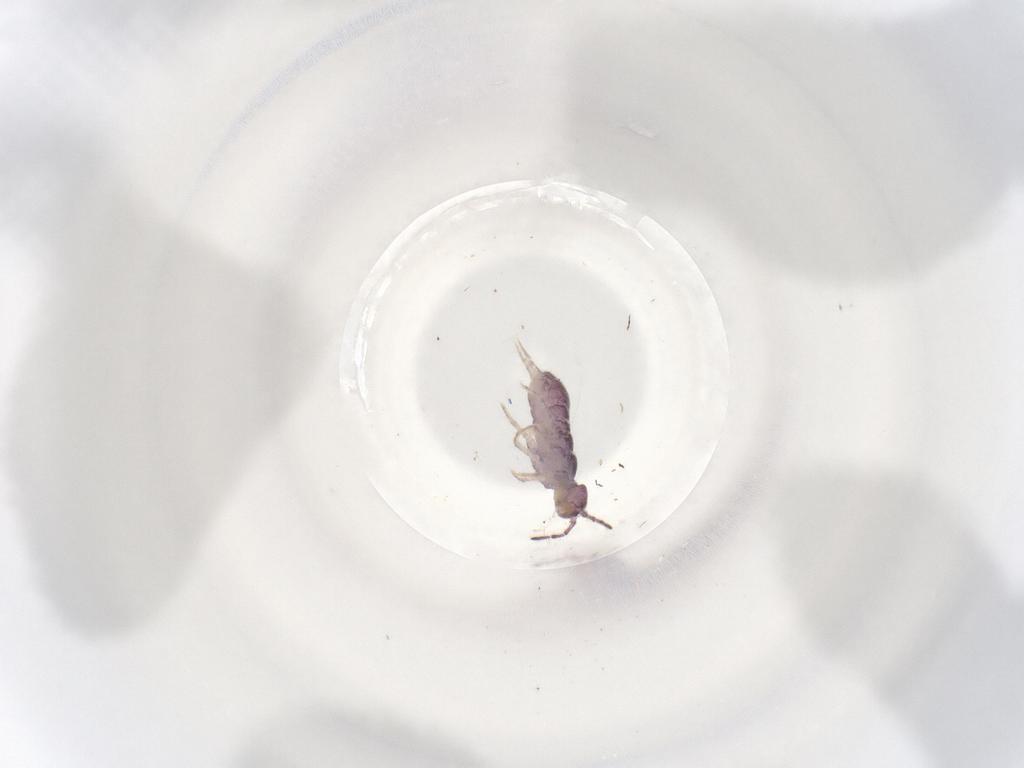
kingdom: Animalia
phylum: Arthropoda
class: Collembola
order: Entomobryomorpha
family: Isotomidae
